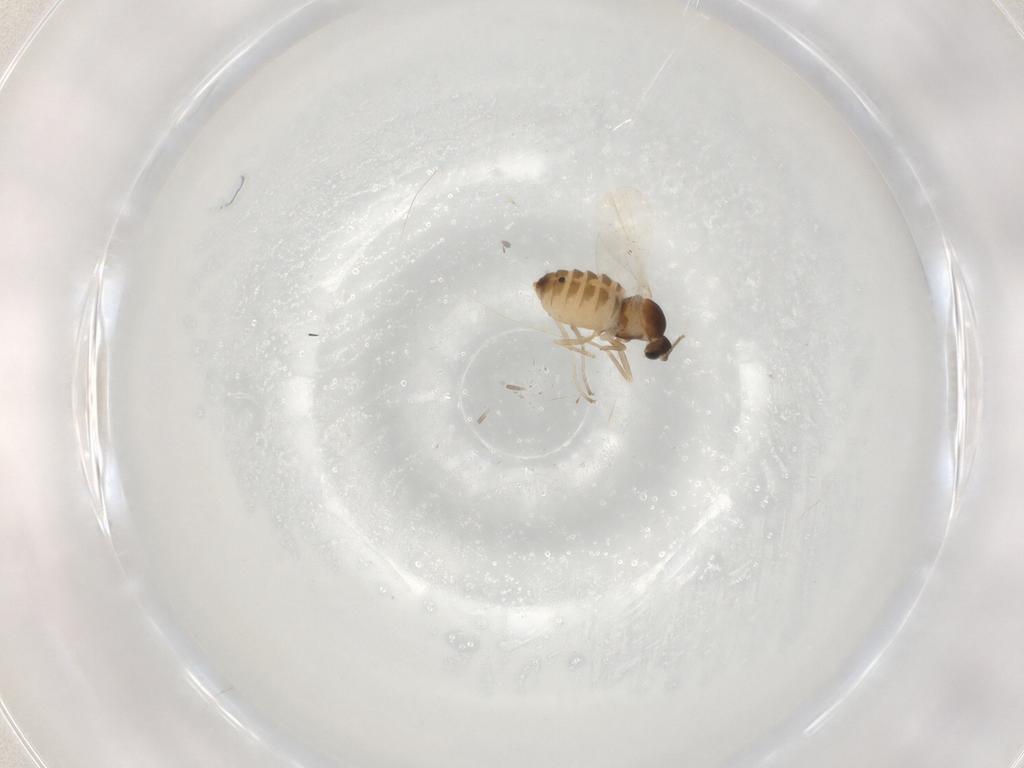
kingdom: Animalia
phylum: Arthropoda
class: Insecta
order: Diptera
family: Cecidomyiidae
